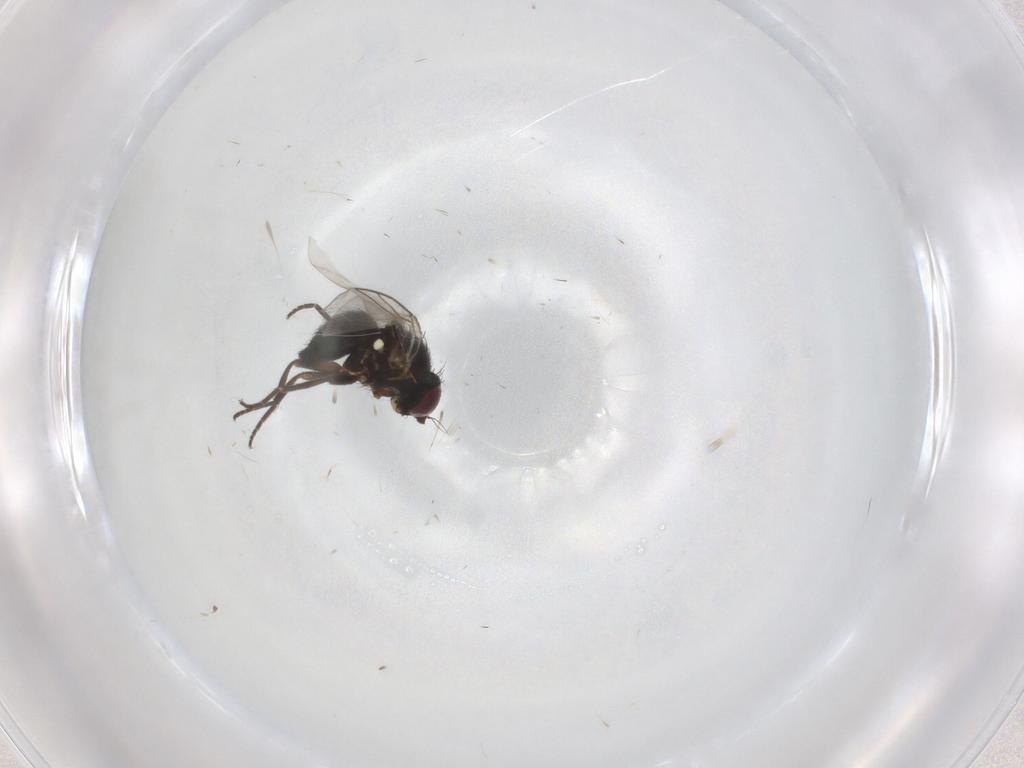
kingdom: Animalia
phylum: Arthropoda
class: Insecta
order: Diptera
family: Agromyzidae
